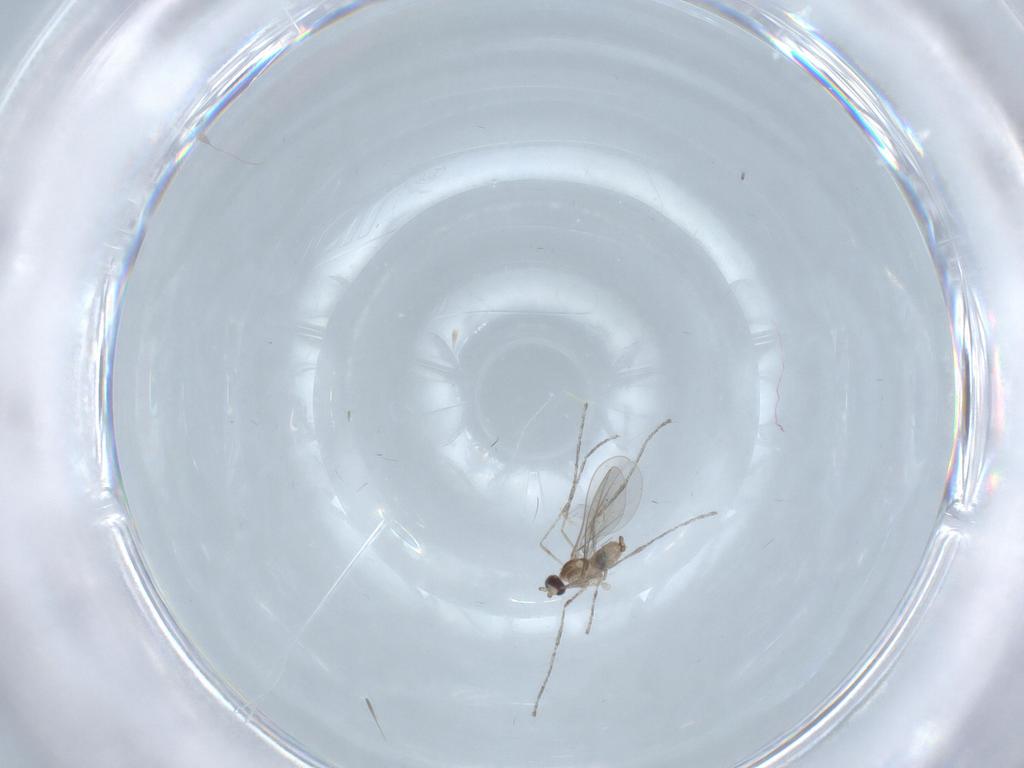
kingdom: Animalia
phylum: Arthropoda
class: Insecta
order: Diptera
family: Cecidomyiidae
